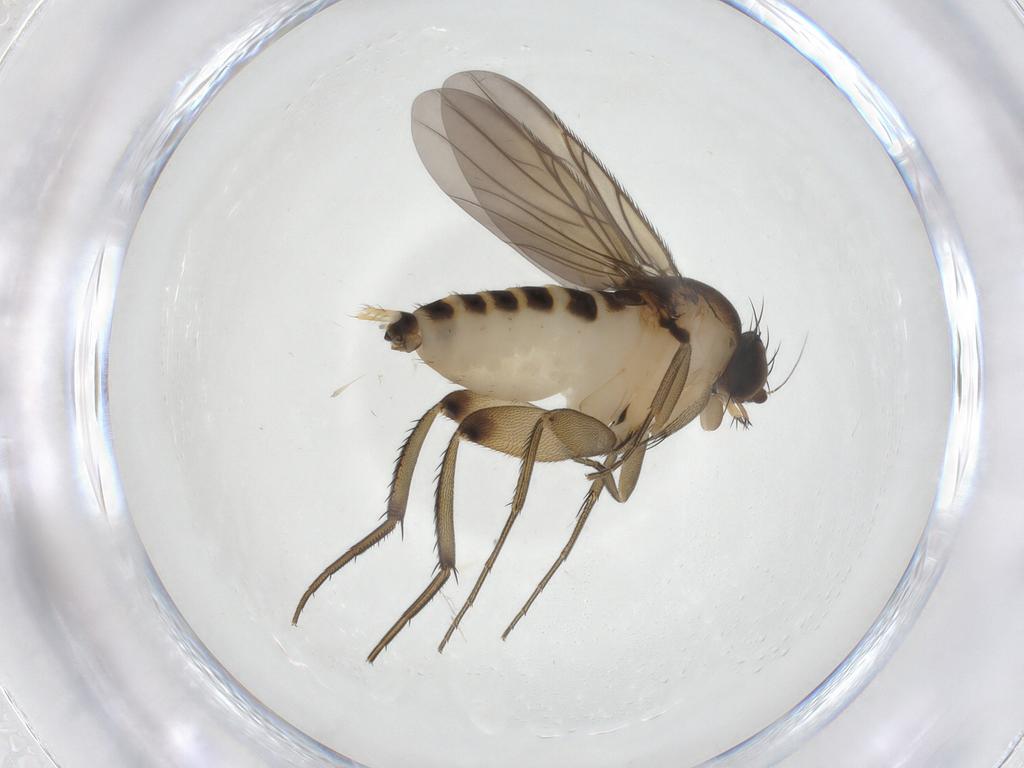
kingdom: Animalia
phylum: Arthropoda
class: Insecta
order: Diptera
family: Phoridae
